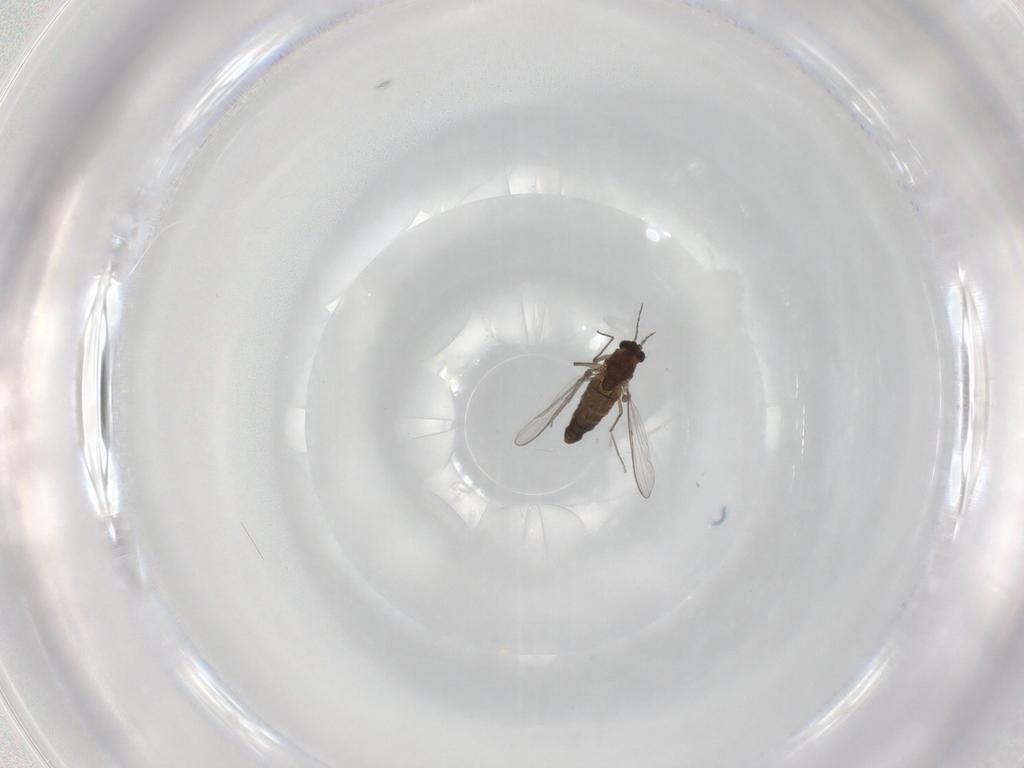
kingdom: Animalia
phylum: Arthropoda
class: Insecta
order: Diptera
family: Chironomidae
